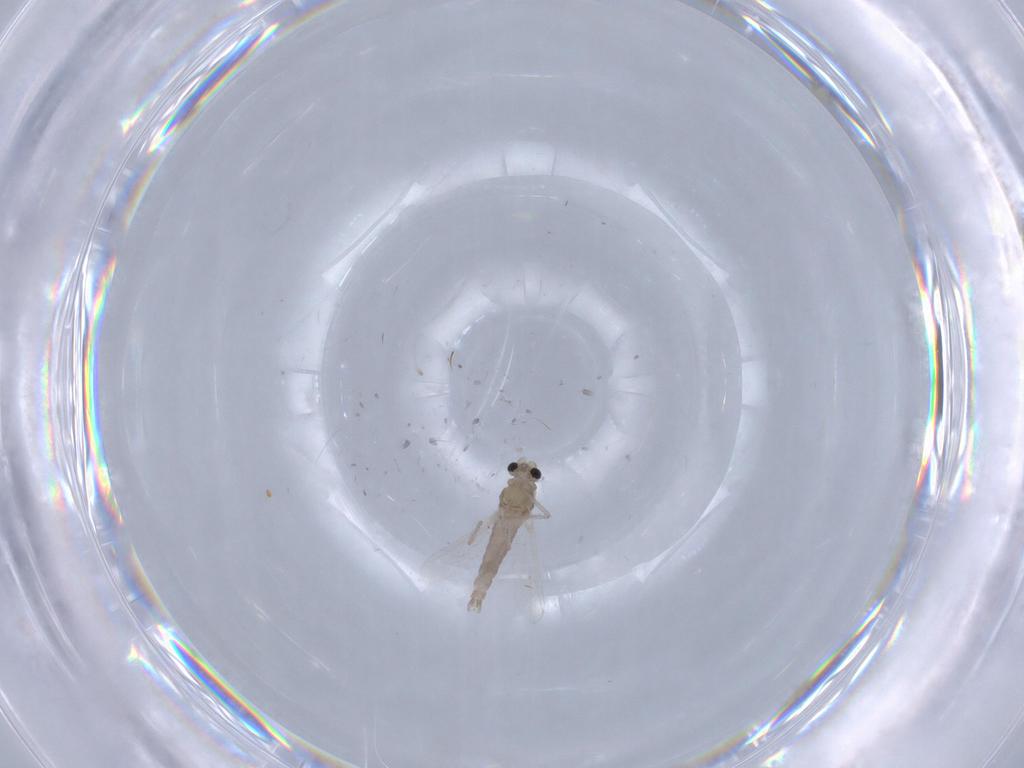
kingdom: Animalia
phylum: Arthropoda
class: Insecta
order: Diptera
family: Chironomidae
